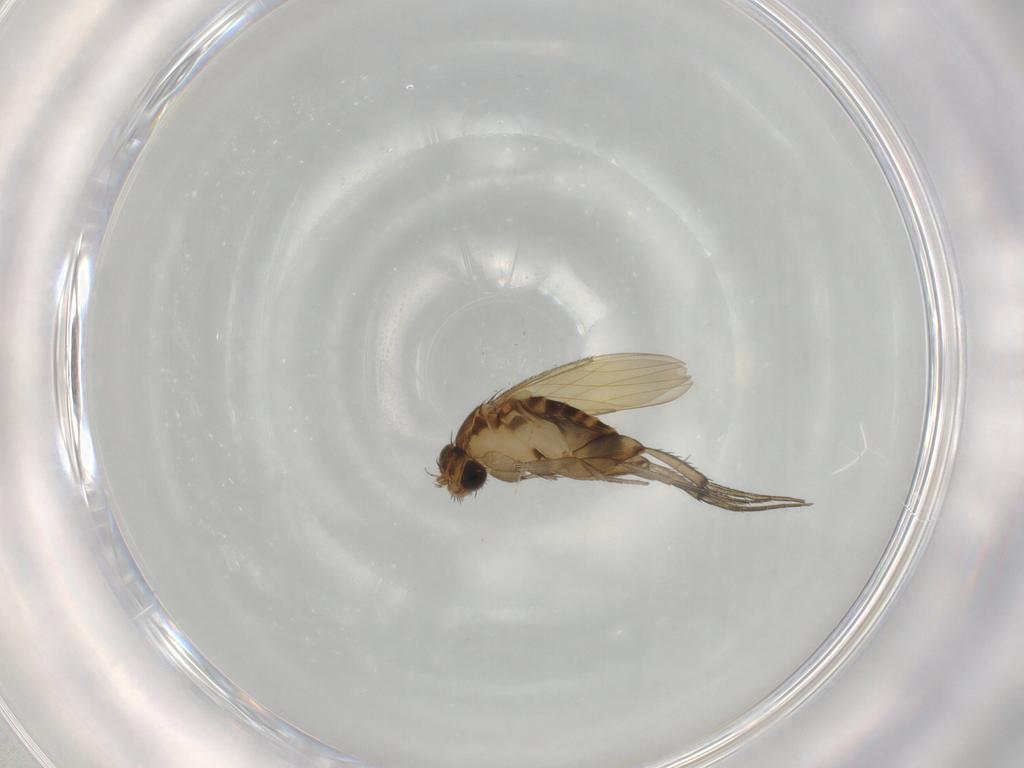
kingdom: Animalia
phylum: Arthropoda
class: Insecta
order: Diptera
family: Phoridae
